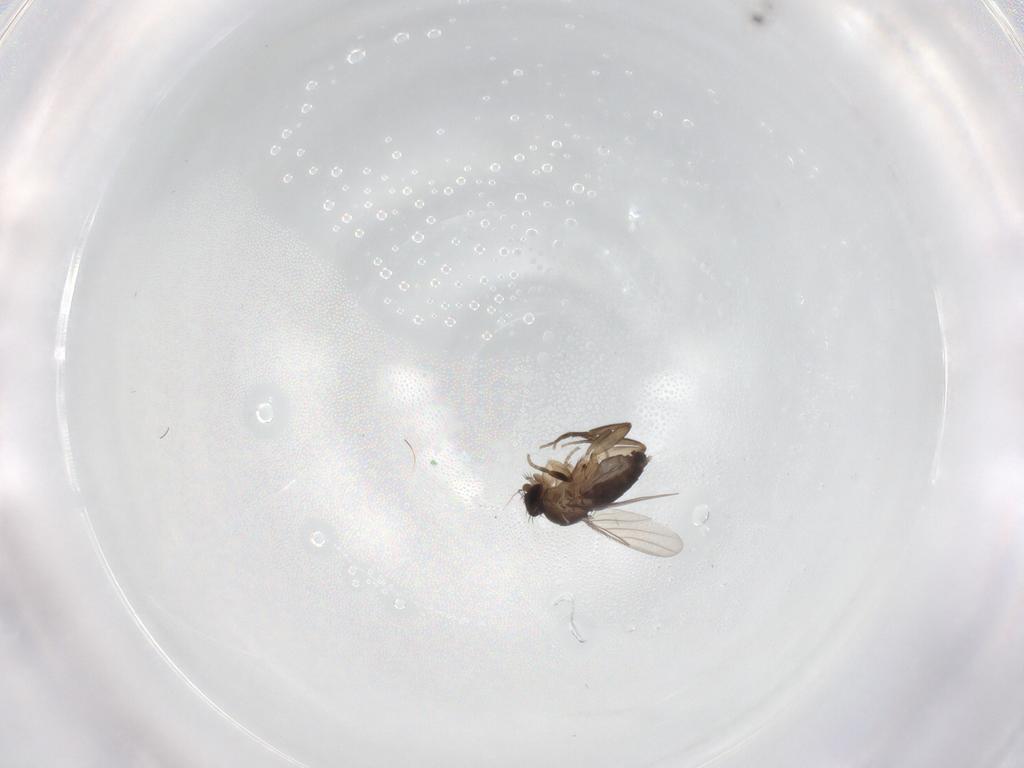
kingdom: Animalia
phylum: Arthropoda
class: Insecta
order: Diptera
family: Phoridae
